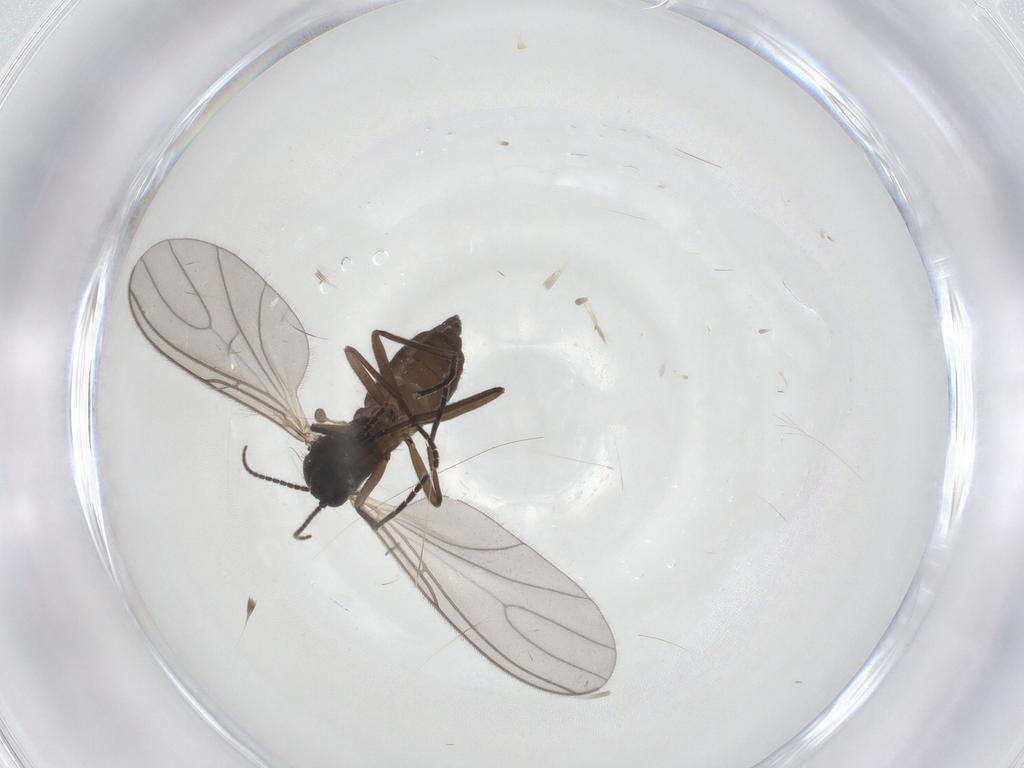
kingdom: Animalia
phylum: Arthropoda
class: Insecta
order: Diptera
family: Sciaridae
